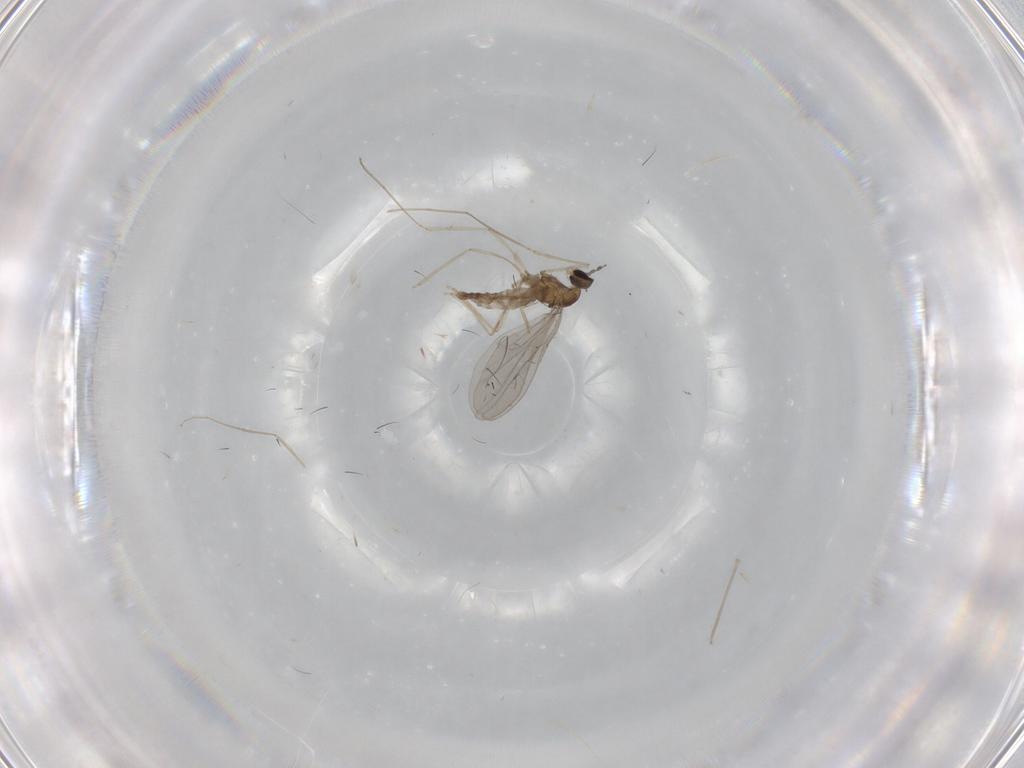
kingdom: Animalia
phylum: Arthropoda
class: Insecta
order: Diptera
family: Cecidomyiidae
